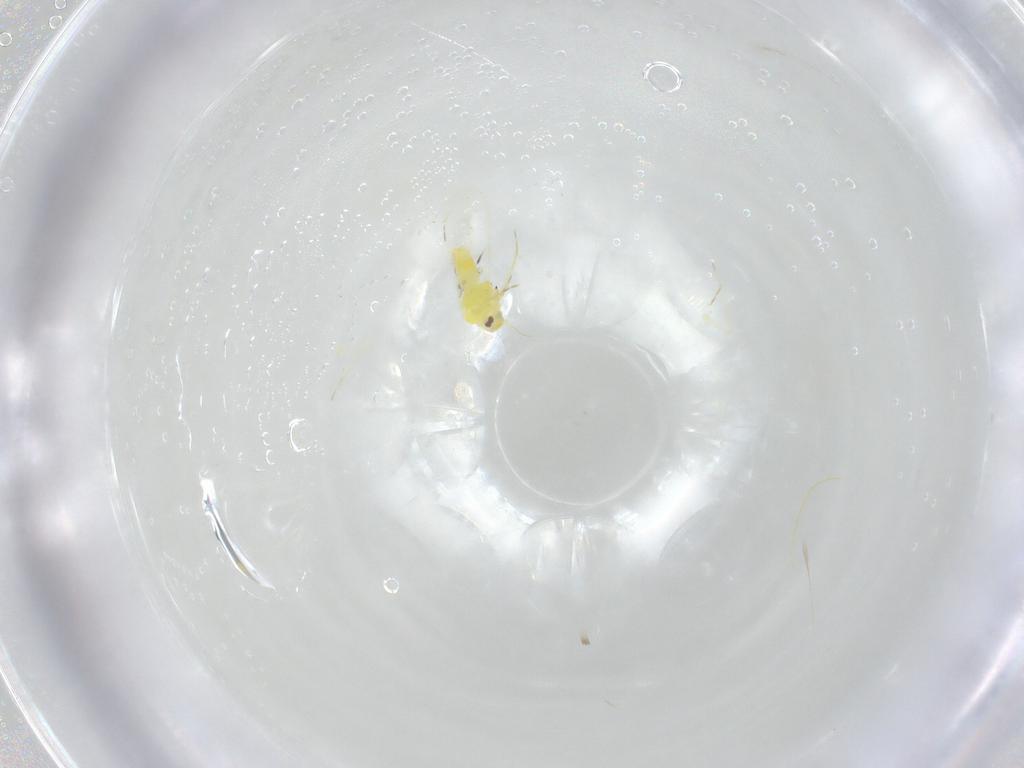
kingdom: Animalia
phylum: Arthropoda
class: Insecta
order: Hemiptera
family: Aleyrodidae
